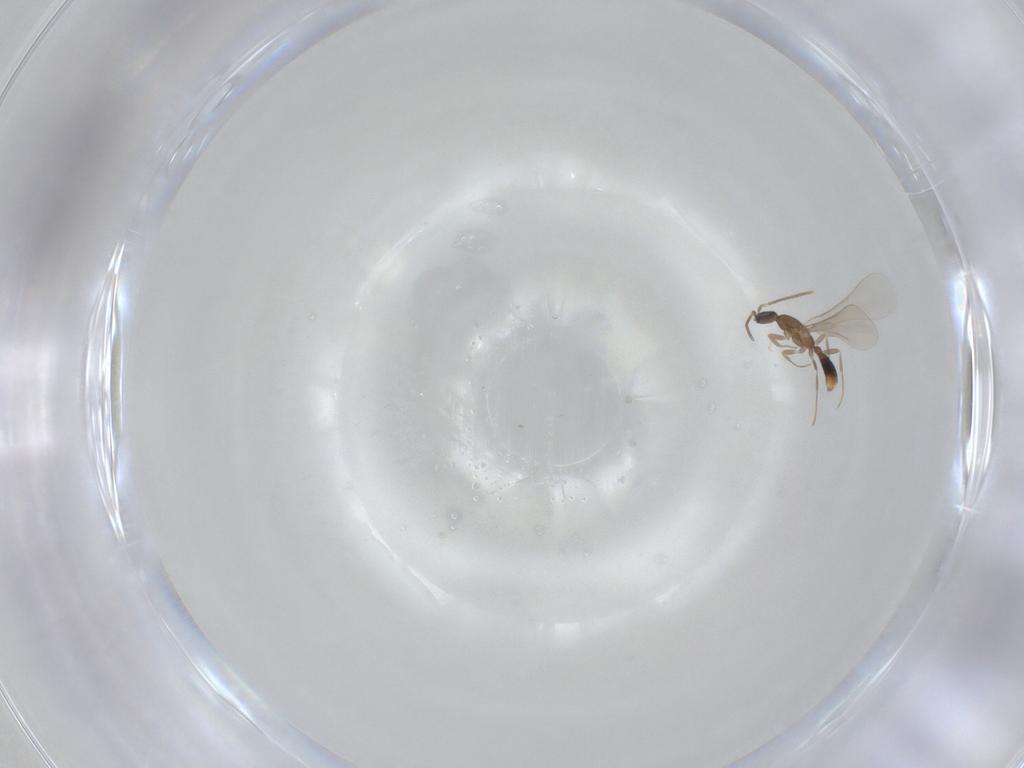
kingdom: Animalia
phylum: Arthropoda
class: Insecta
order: Hymenoptera
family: Formicidae
